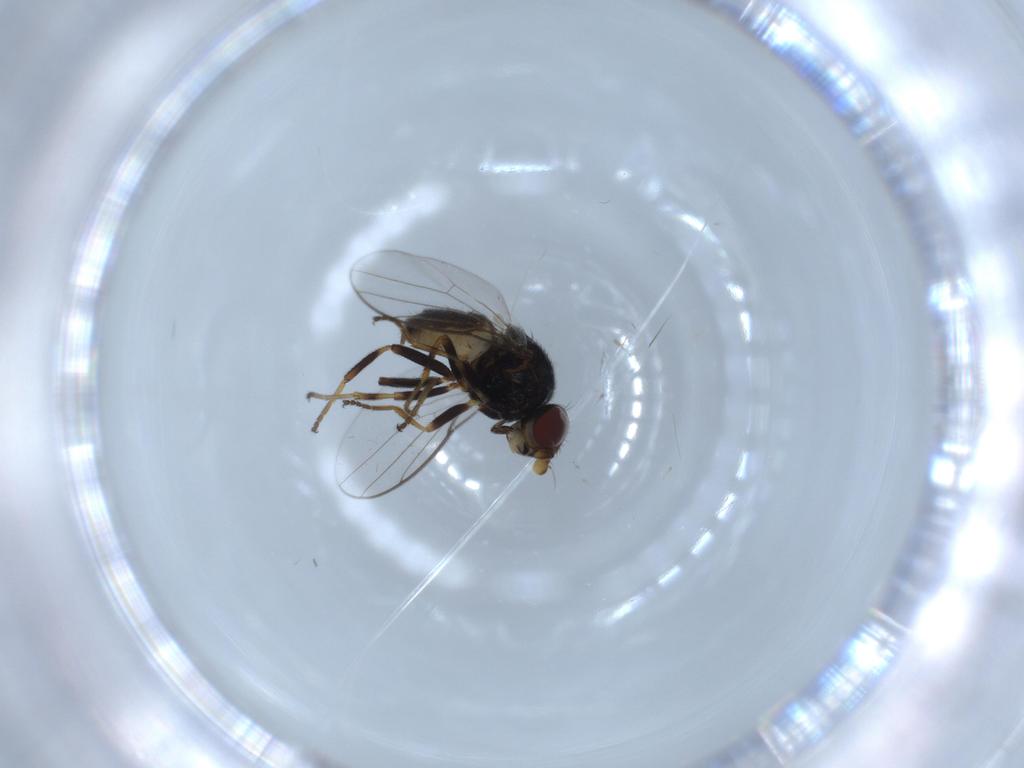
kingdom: Animalia
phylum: Arthropoda
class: Insecta
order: Diptera
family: Cecidomyiidae
